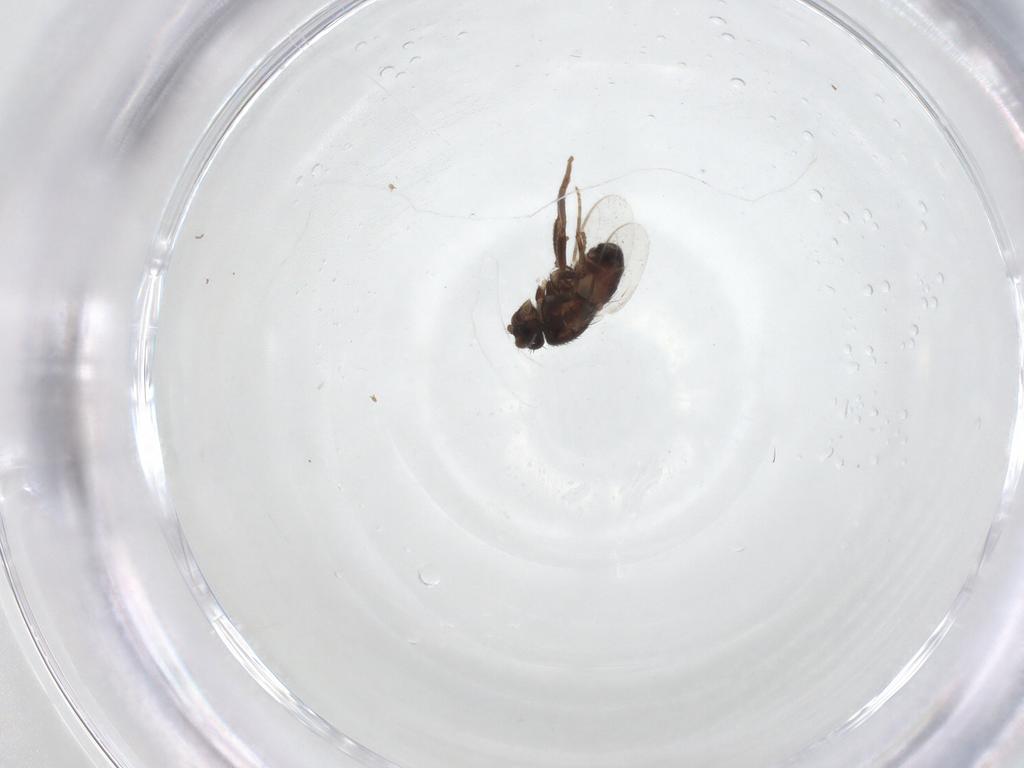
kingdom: Animalia
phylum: Arthropoda
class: Insecta
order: Diptera
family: Sphaeroceridae
